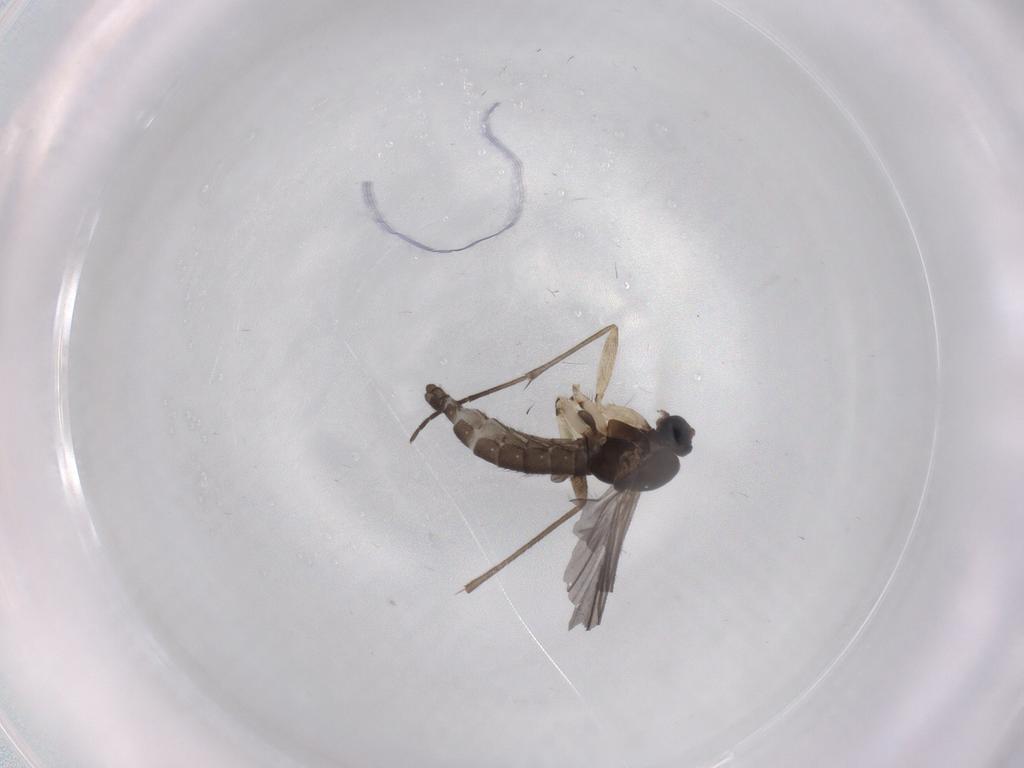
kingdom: Animalia
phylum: Arthropoda
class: Insecta
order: Diptera
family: Sciaridae
